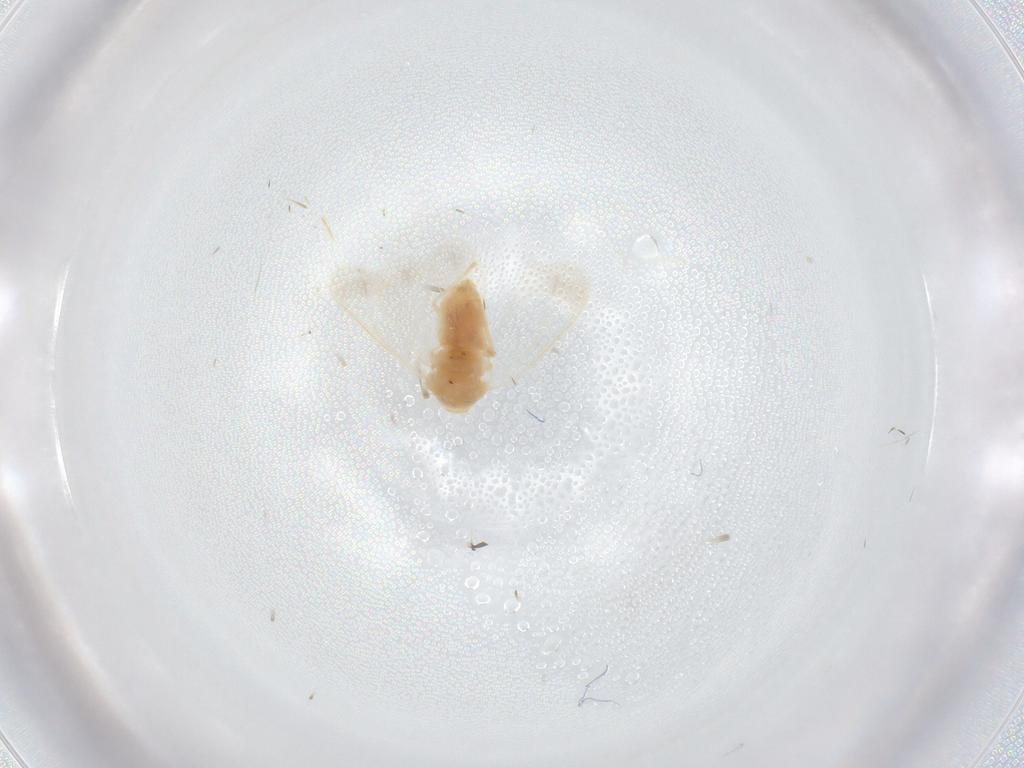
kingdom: Animalia
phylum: Arthropoda
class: Insecta
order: Hemiptera
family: Aleyrodidae
